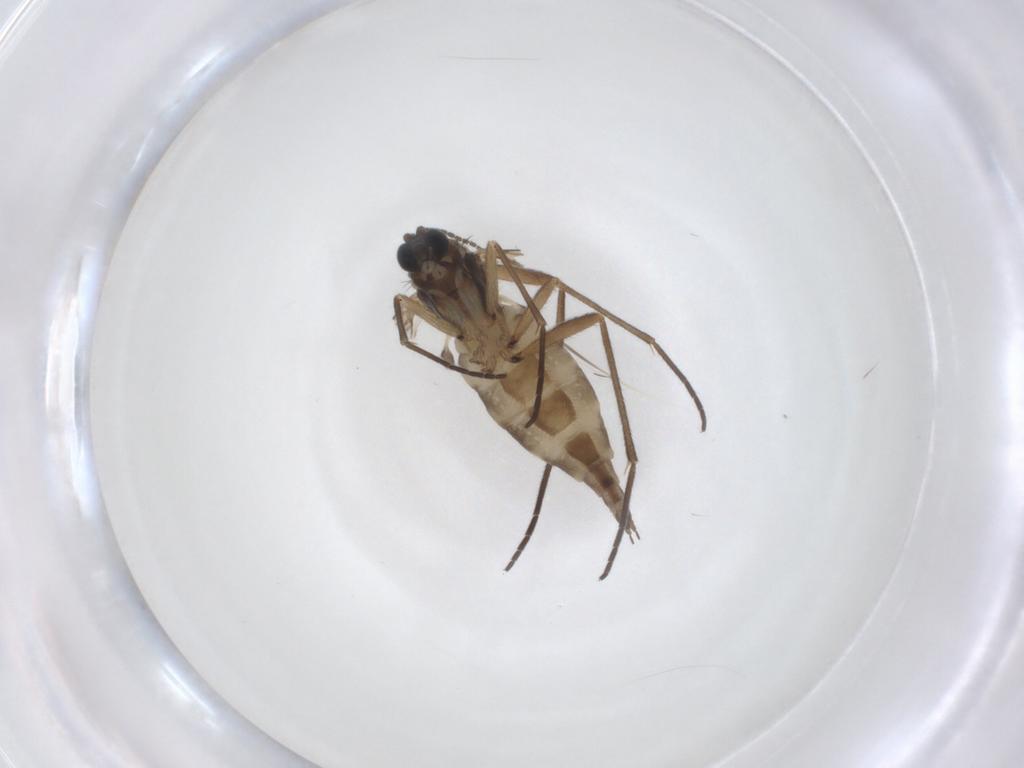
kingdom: Animalia
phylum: Arthropoda
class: Insecta
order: Diptera
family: Sciaridae
